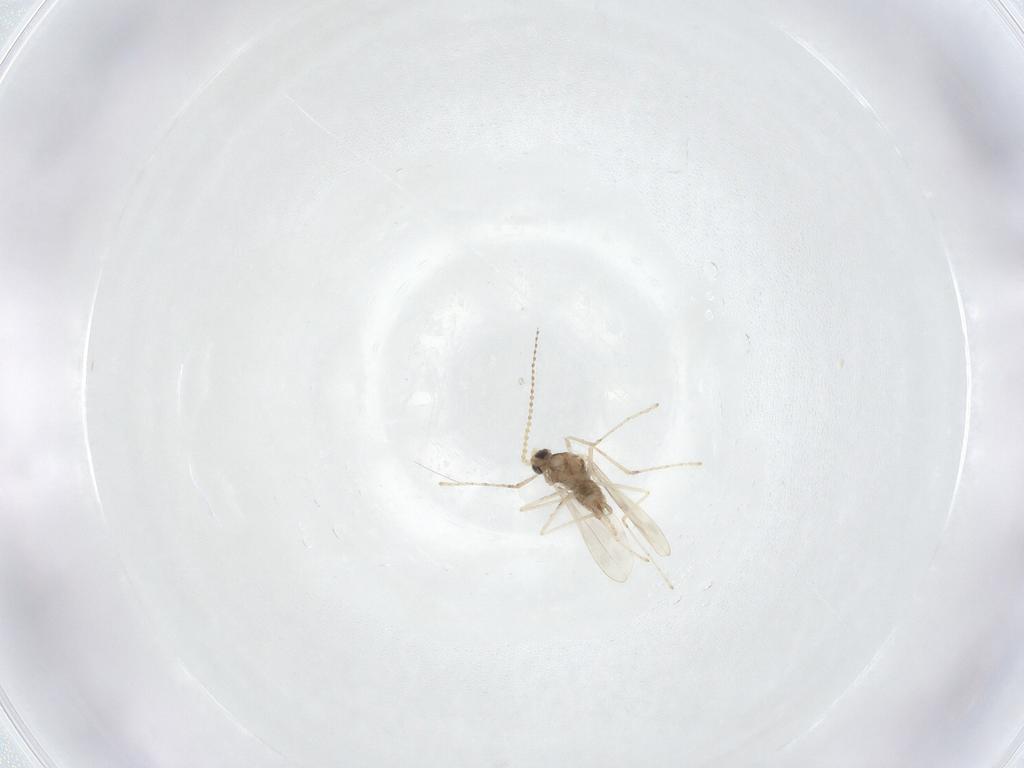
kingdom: Animalia
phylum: Arthropoda
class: Insecta
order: Diptera
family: Cecidomyiidae
